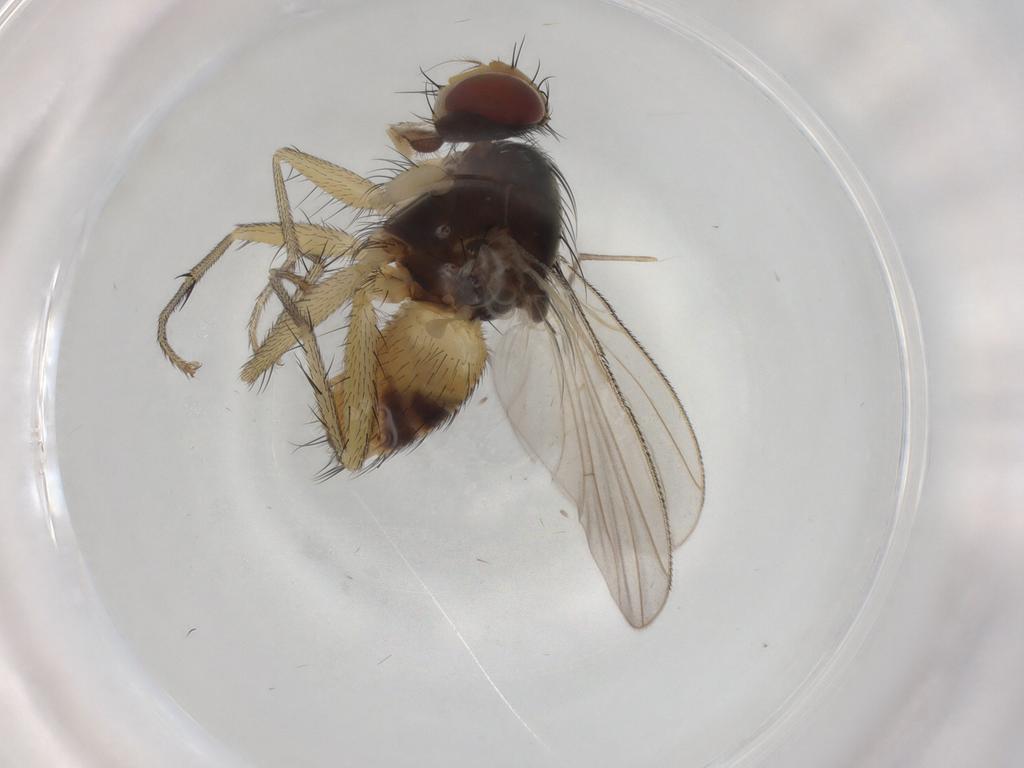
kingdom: Animalia
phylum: Arthropoda
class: Insecta
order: Diptera
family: Muscidae
